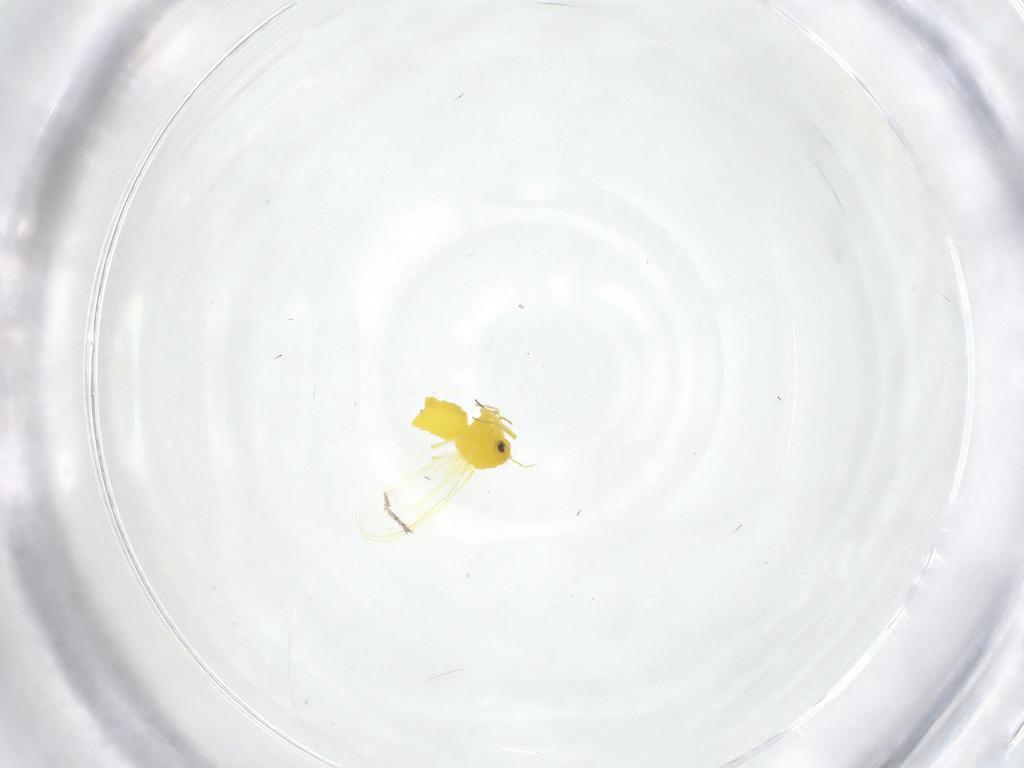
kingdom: Animalia
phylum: Arthropoda
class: Insecta
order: Hemiptera
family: Aleyrodidae
